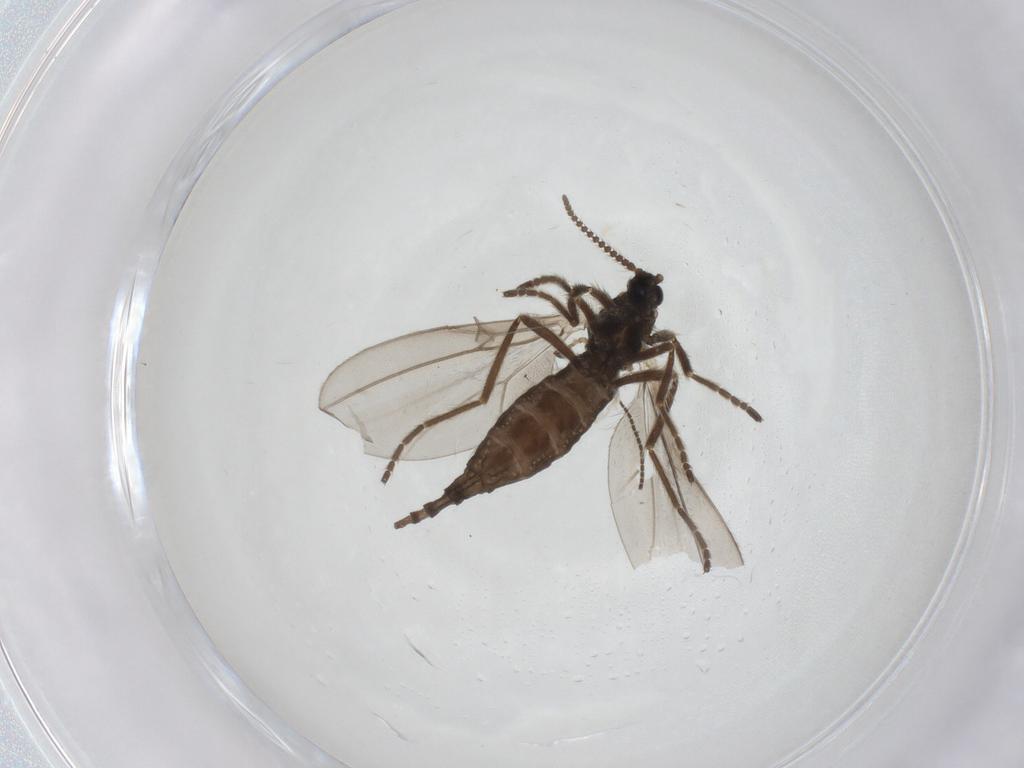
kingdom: Animalia
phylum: Arthropoda
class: Insecta
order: Diptera
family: Cecidomyiidae
